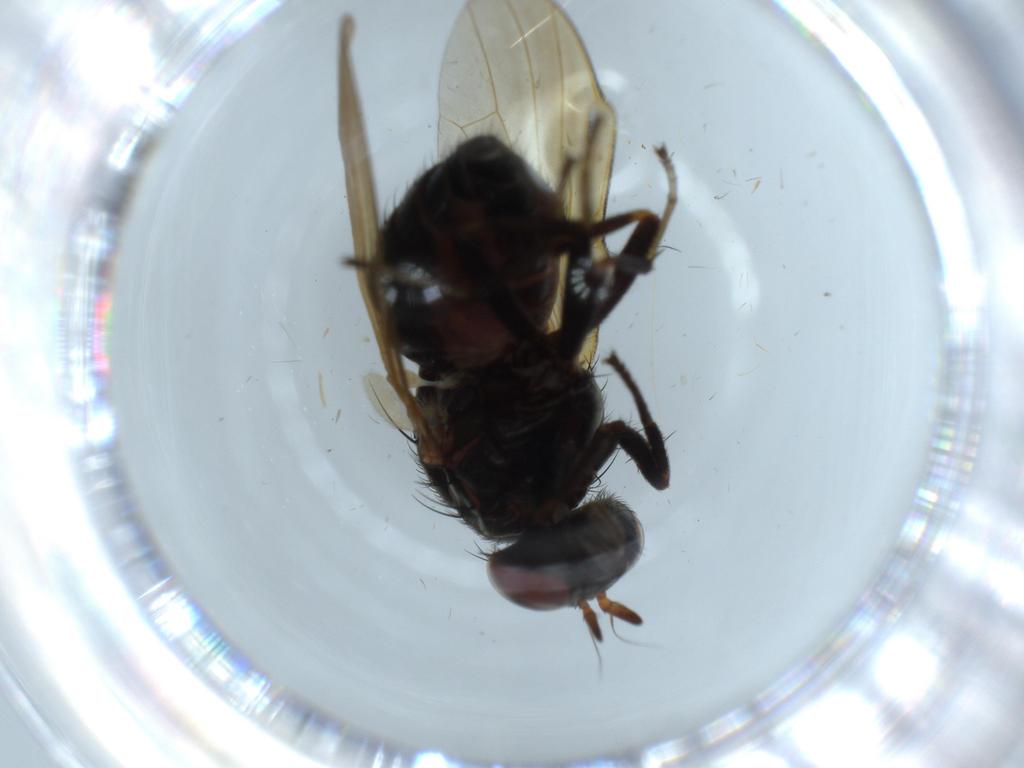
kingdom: Animalia
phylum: Arthropoda
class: Insecta
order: Diptera
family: Lauxaniidae
